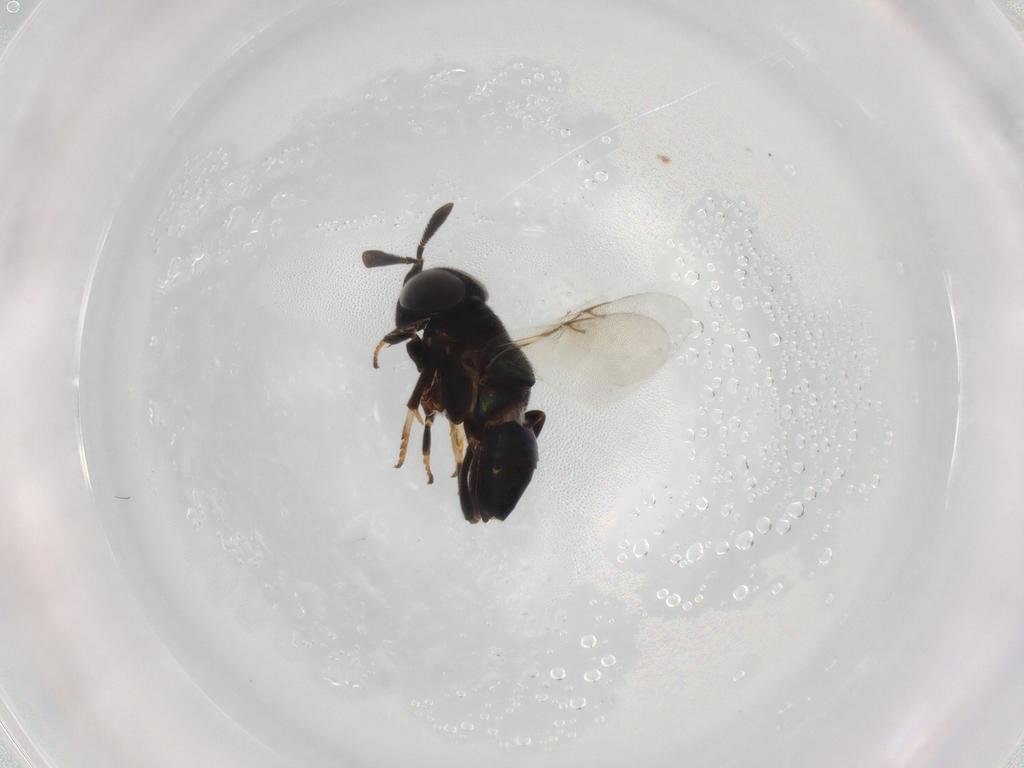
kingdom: Animalia
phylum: Arthropoda
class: Insecta
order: Hymenoptera
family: Encyrtidae
